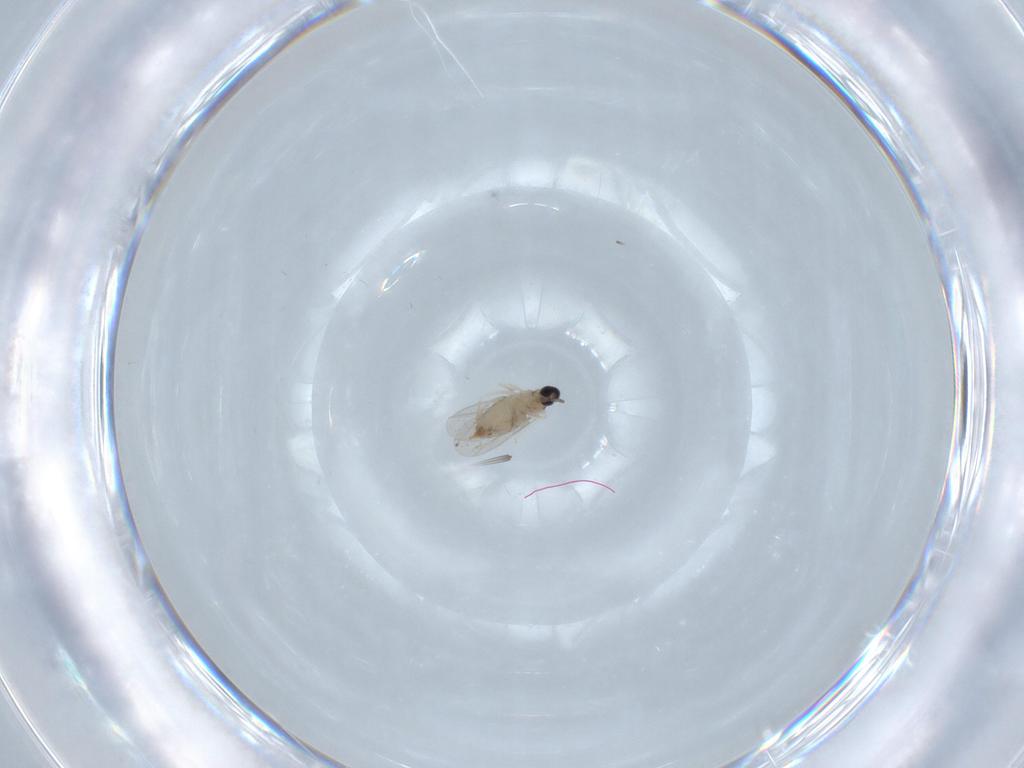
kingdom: Animalia
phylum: Arthropoda
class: Insecta
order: Diptera
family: Cecidomyiidae
